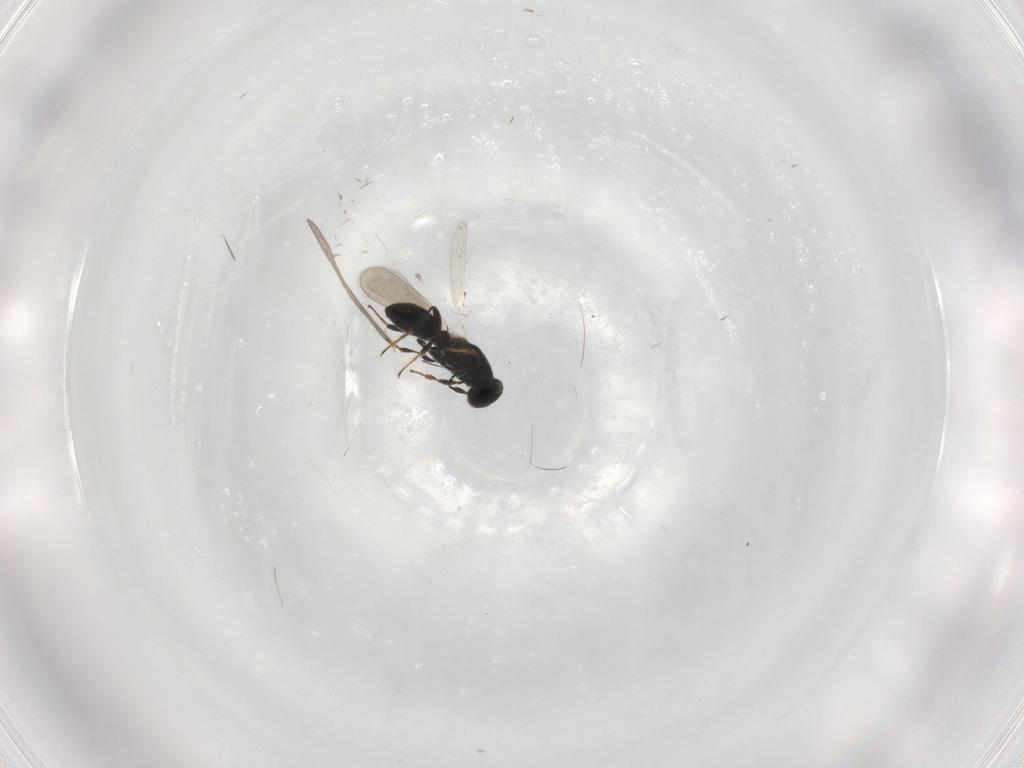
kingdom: Animalia
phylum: Arthropoda
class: Insecta
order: Hymenoptera
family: Platygastridae
